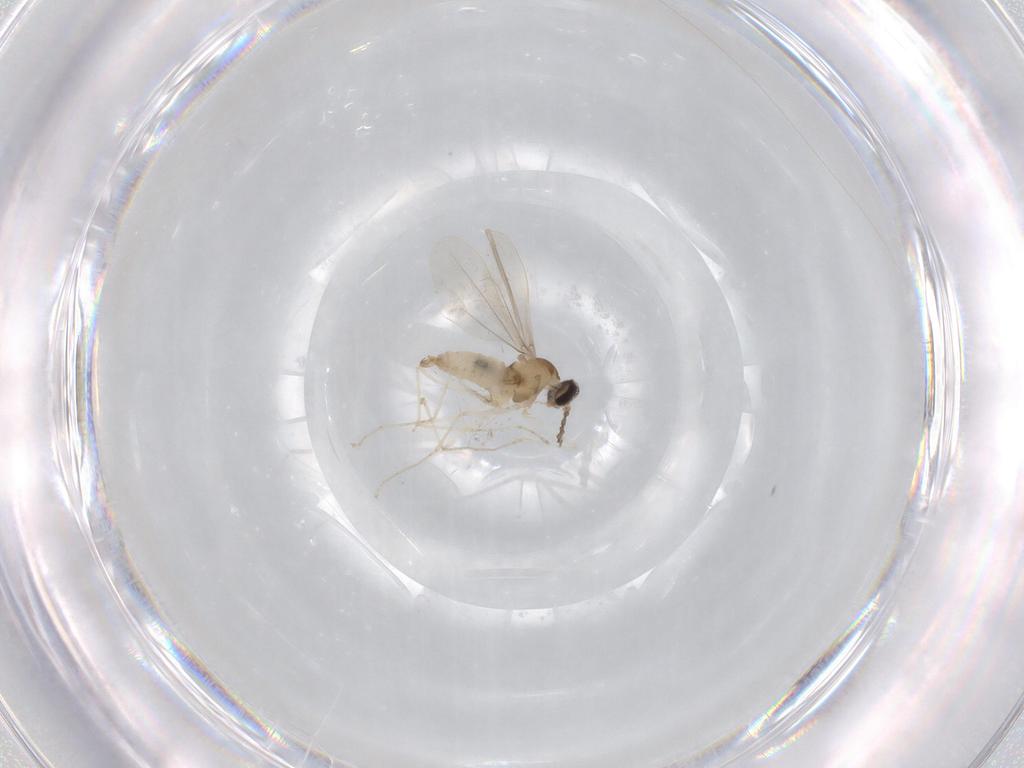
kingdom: Animalia
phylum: Arthropoda
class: Insecta
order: Diptera
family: Cecidomyiidae
